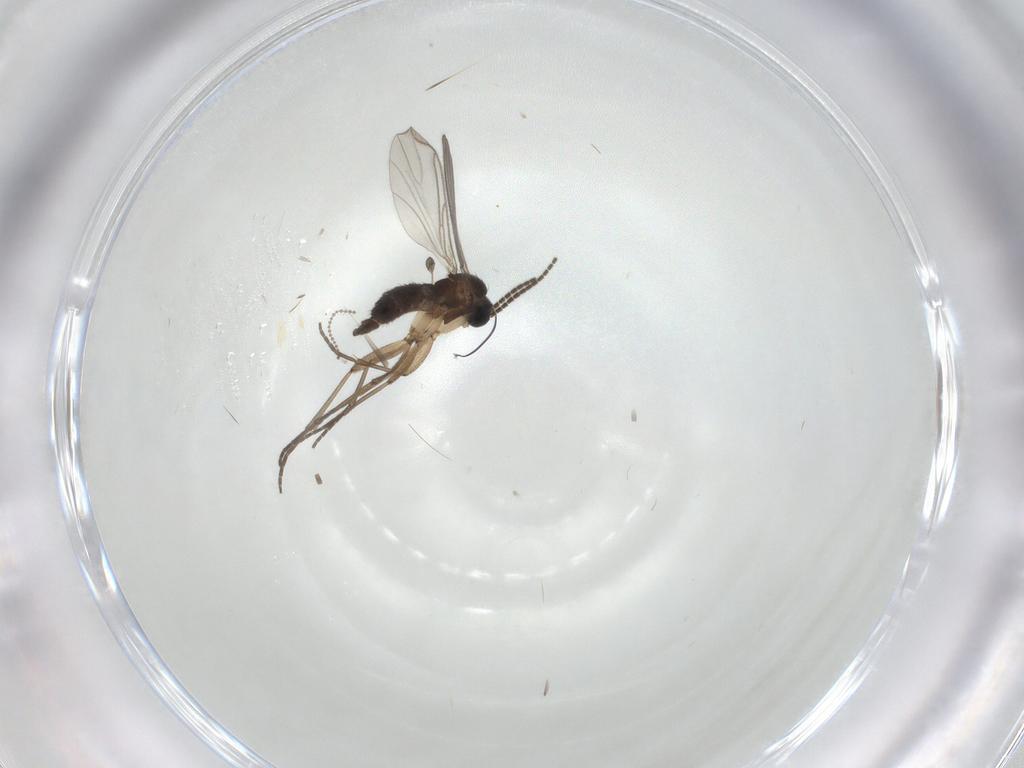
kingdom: Animalia
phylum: Arthropoda
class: Insecta
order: Diptera
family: Sciaridae
